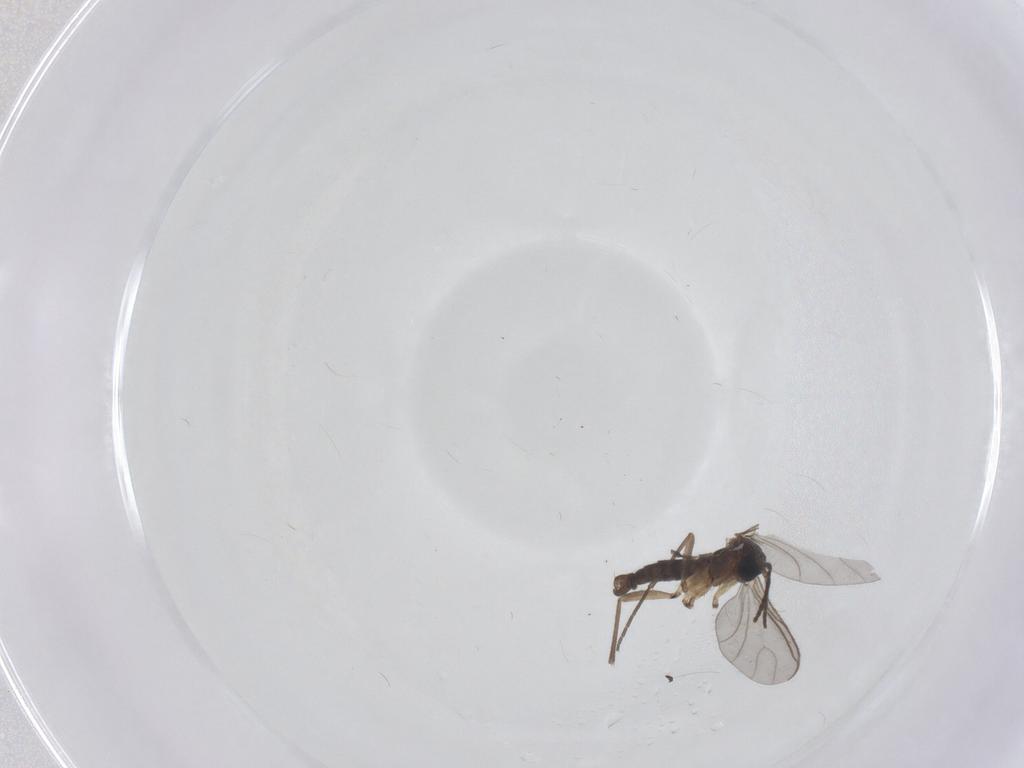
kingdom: Animalia
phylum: Arthropoda
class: Insecta
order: Diptera
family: Sciaridae
